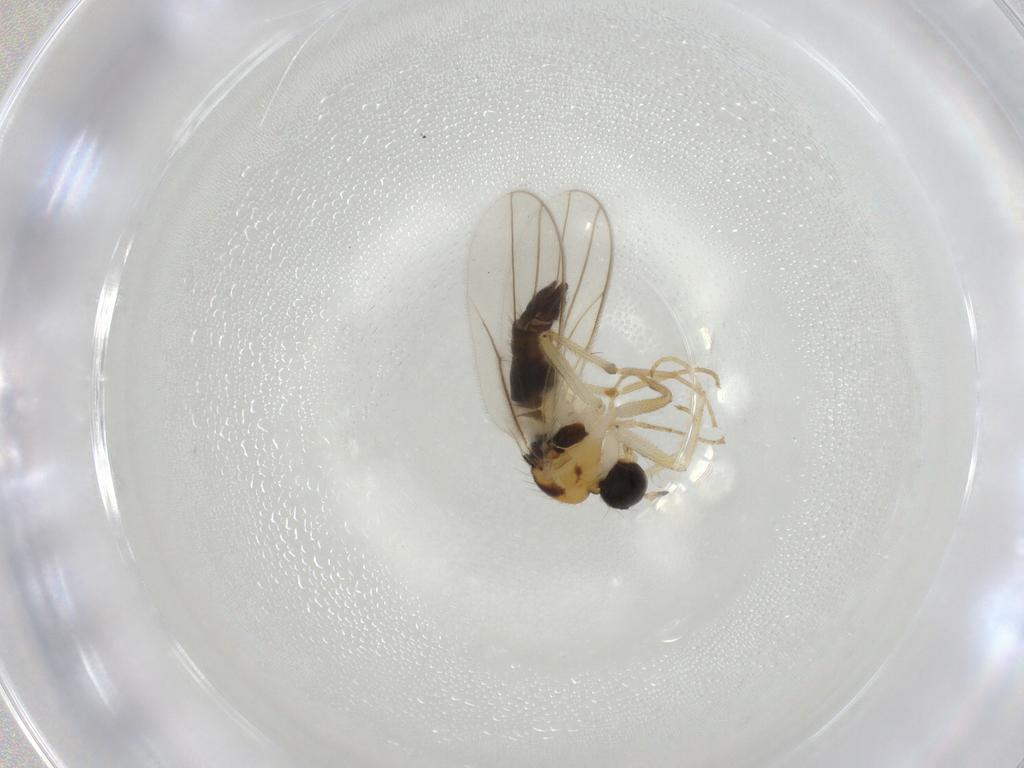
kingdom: Animalia
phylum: Arthropoda
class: Insecta
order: Diptera
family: Hybotidae
